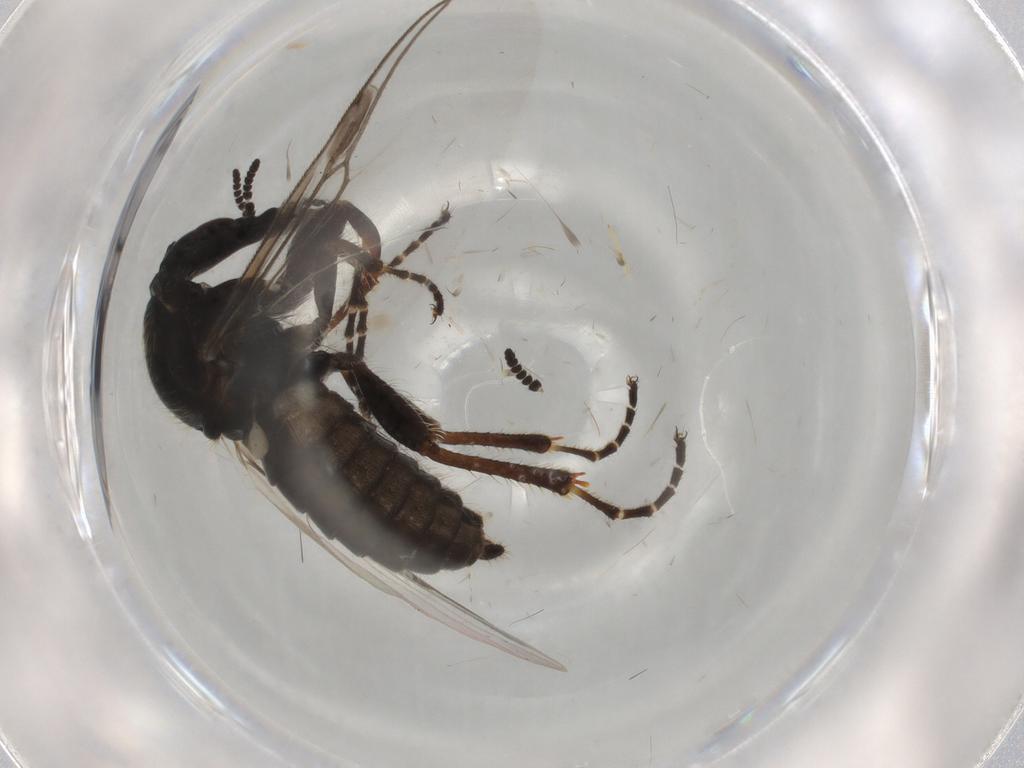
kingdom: Animalia
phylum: Arthropoda
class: Insecta
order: Diptera
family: Bibionidae
